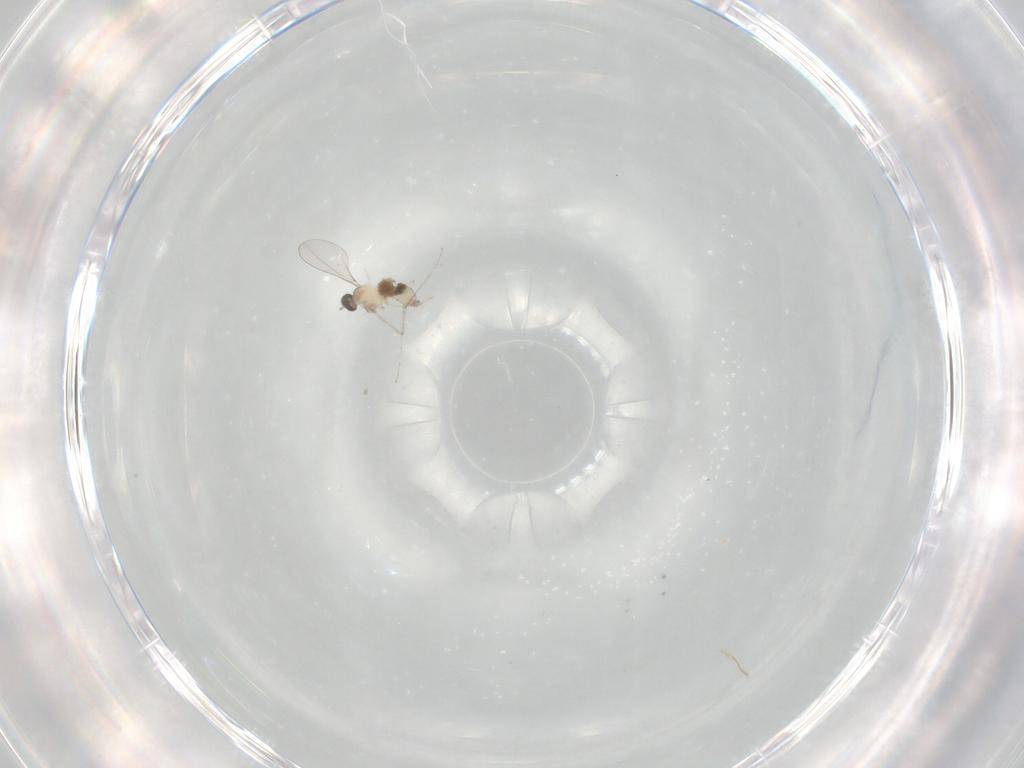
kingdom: Animalia
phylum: Arthropoda
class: Insecta
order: Diptera
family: Cecidomyiidae
